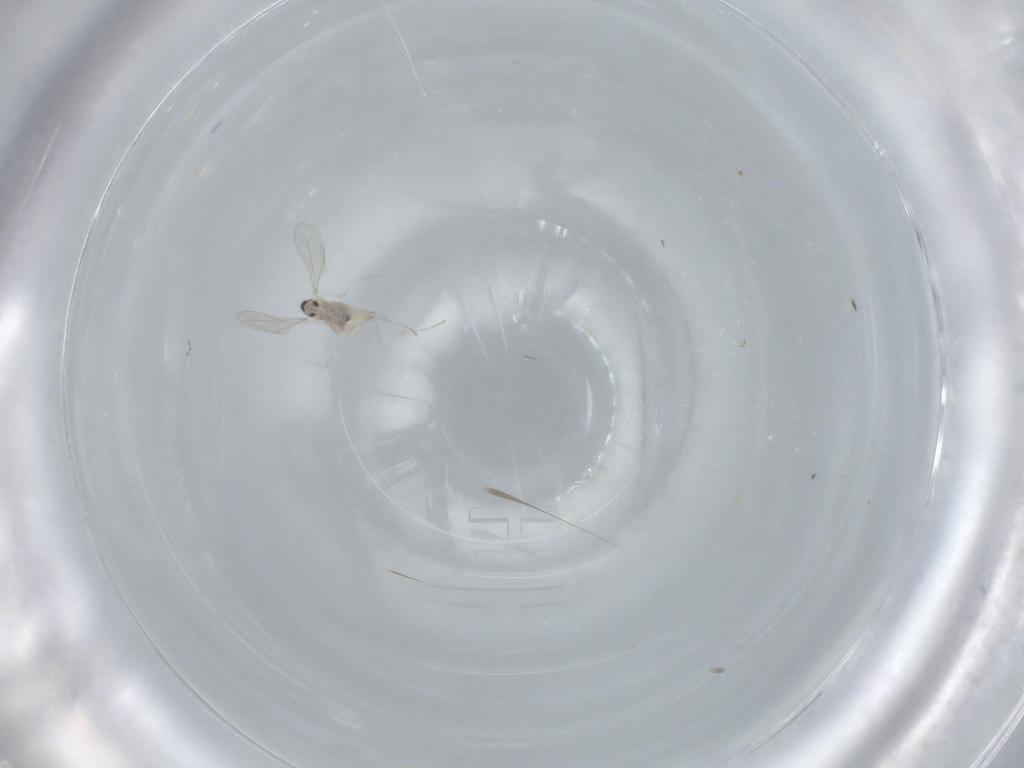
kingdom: Animalia
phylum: Arthropoda
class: Insecta
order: Diptera
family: Cecidomyiidae
